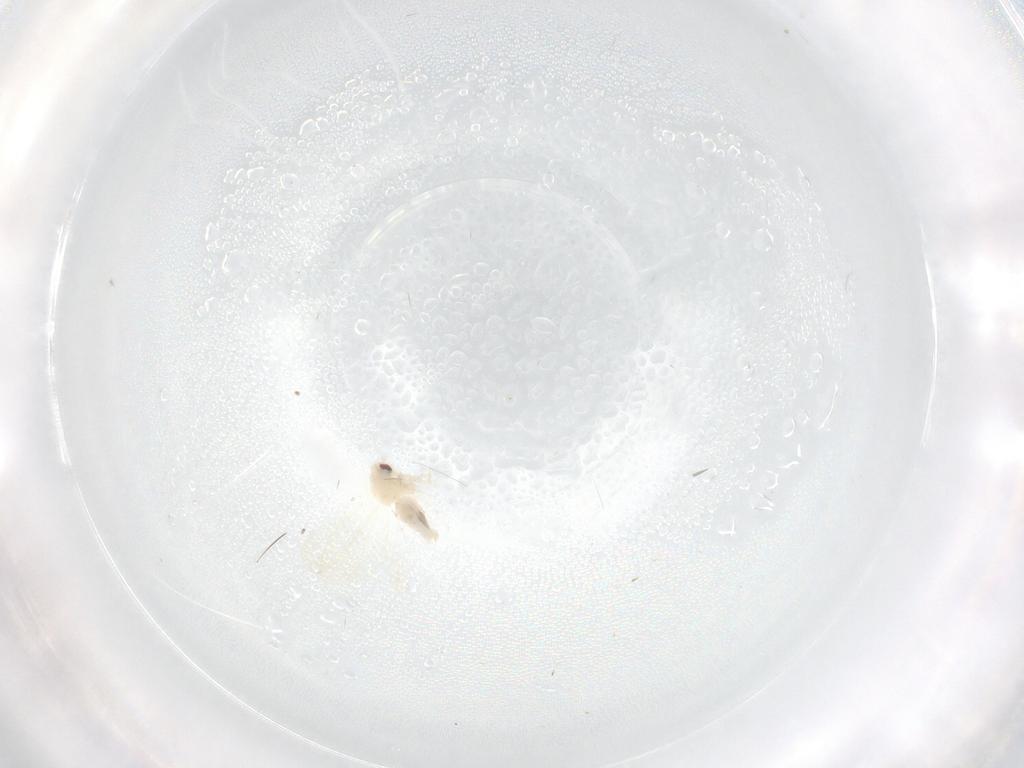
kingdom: Animalia
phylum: Arthropoda
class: Insecta
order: Hemiptera
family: Aleyrodidae
